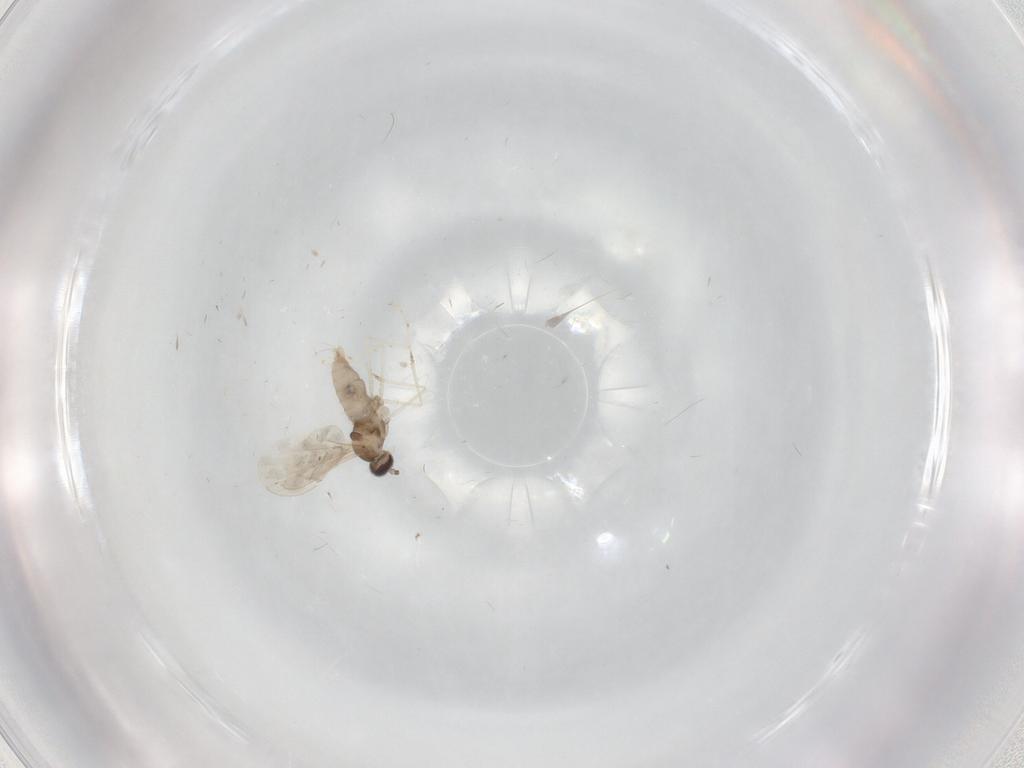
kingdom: Animalia
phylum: Arthropoda
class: Insecta
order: Diptera
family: Cecidomyiidae
